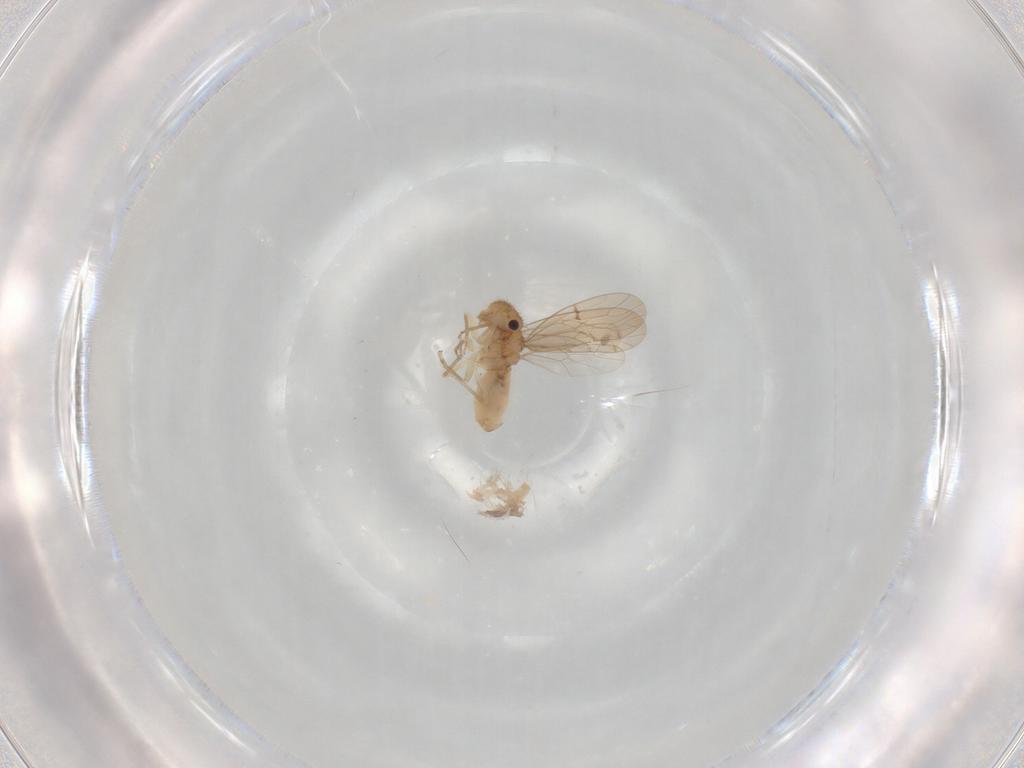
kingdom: Animalia
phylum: Arthropoda
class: Insecta
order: Psocodea
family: Ectopsocidae
